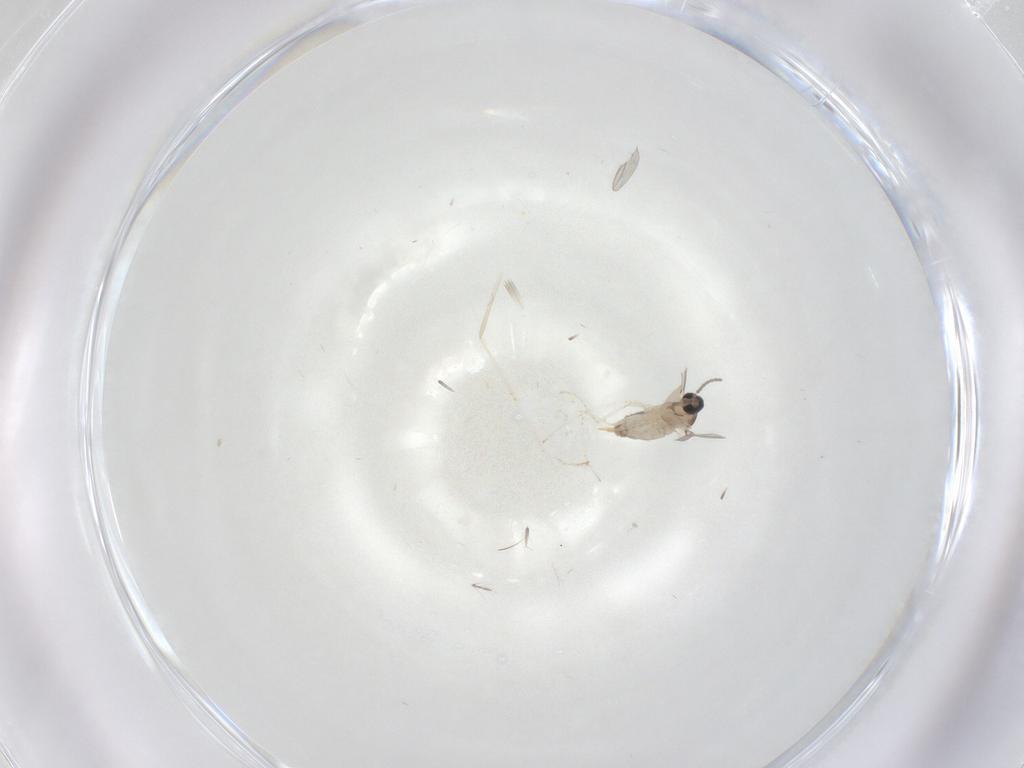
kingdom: Animalia
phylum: Arthropoda
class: Insecta
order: Diptera
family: Cecidomyiidae
